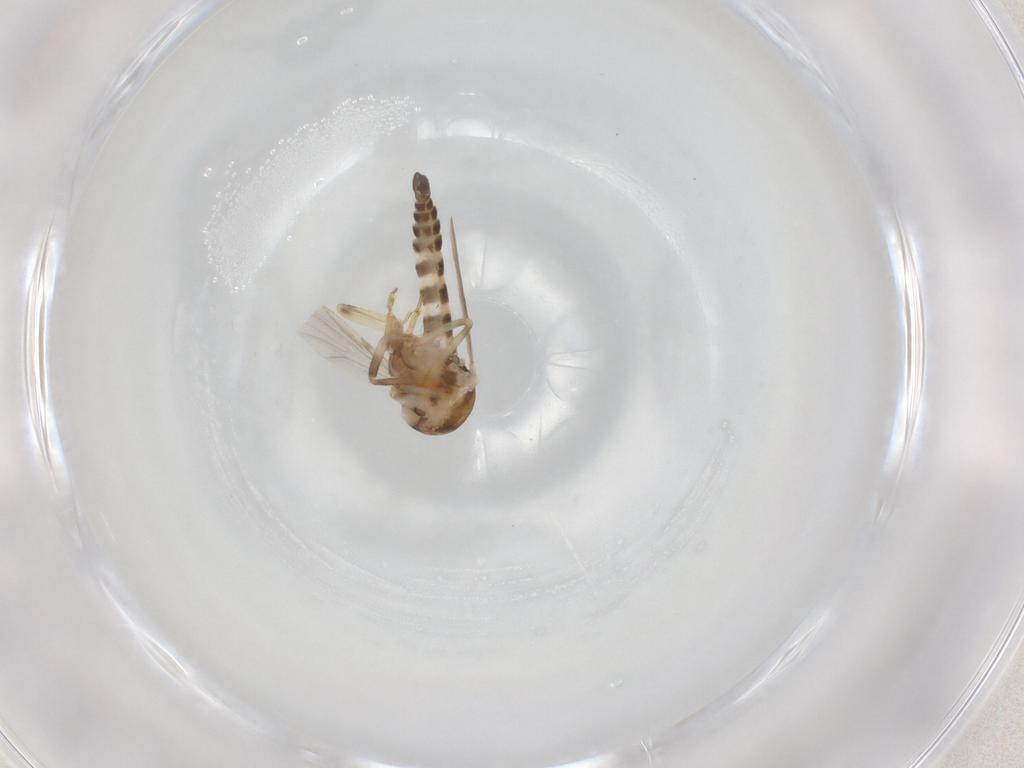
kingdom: Animalia
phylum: Arthropoda
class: Insecta
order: Diptera
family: Ceratopogonidae
